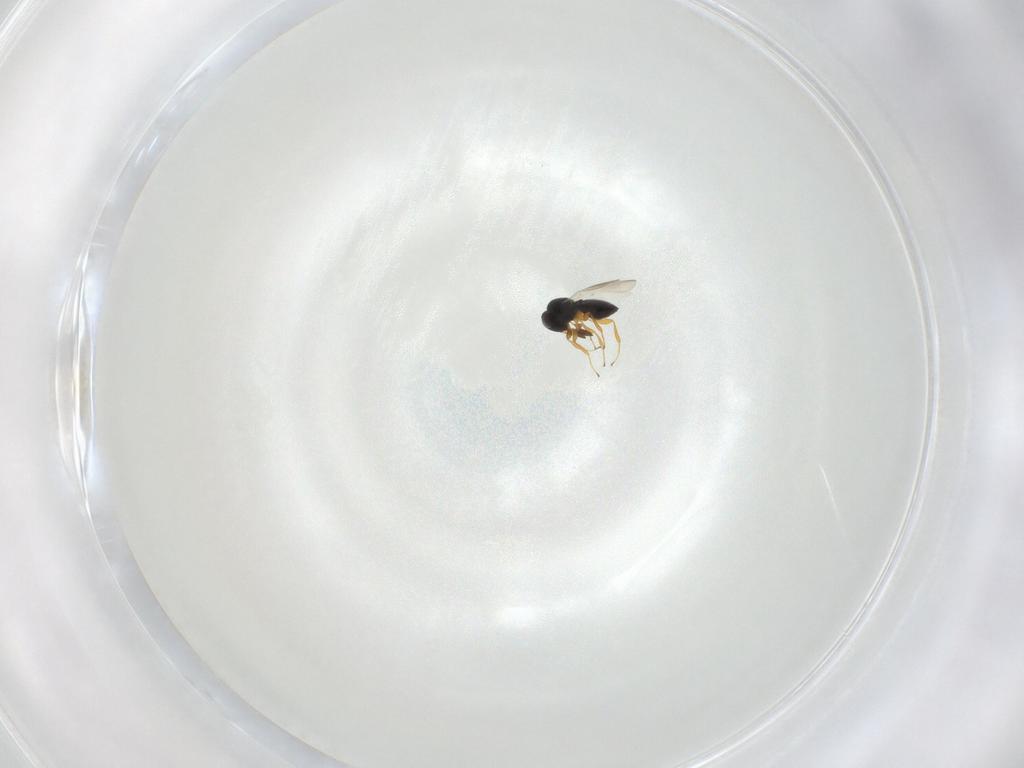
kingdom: Animalia
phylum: Arthropoda
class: Insecta
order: Hymenoptera
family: Platygastridae
